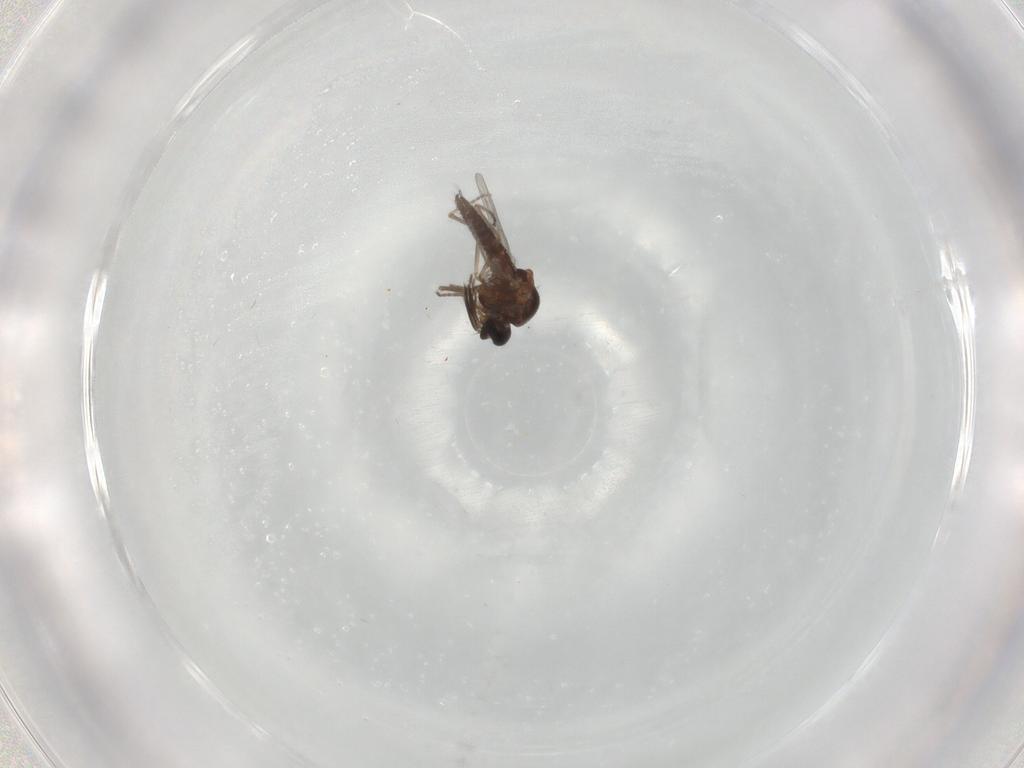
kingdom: Animalia
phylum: Arthropoda
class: Insecta
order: Diptera
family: Ceratopogonidae
